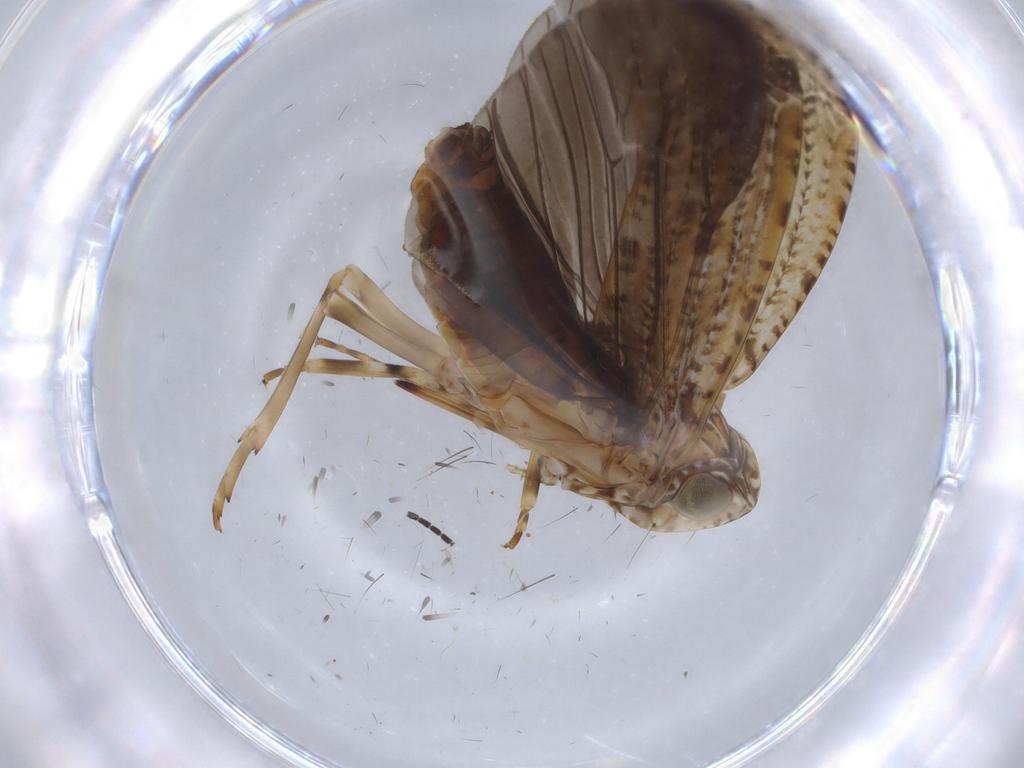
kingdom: Animalia
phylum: Arthropoda
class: Insecta
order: Hemiptera
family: Achilidae
